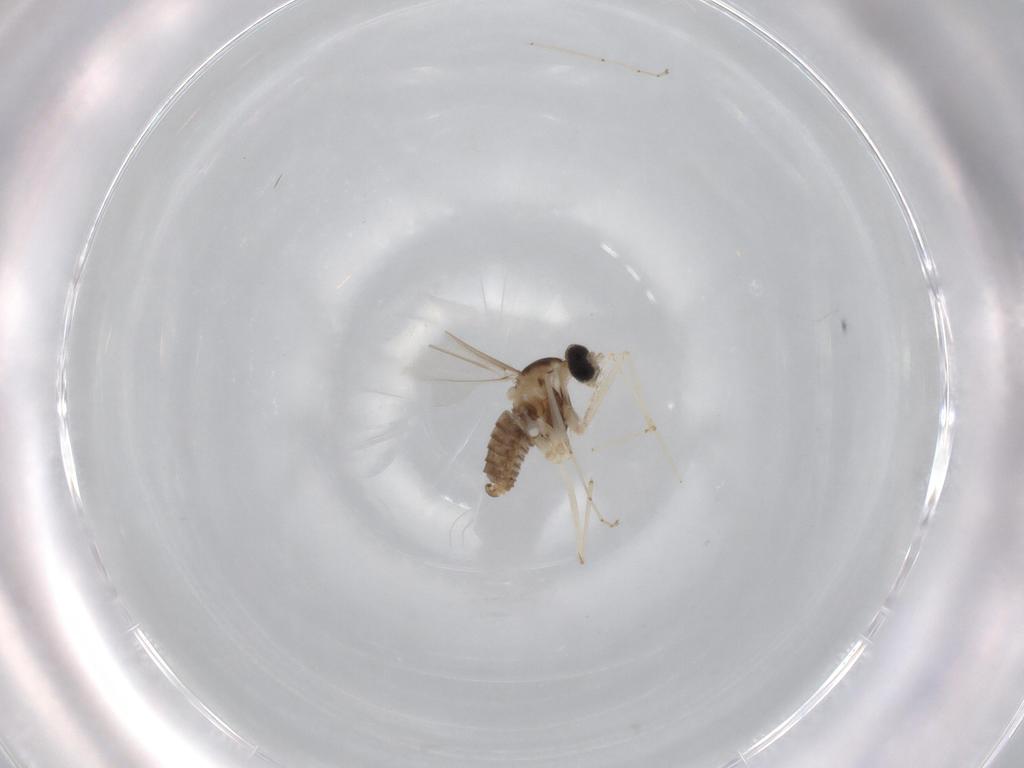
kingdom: Animalia
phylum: Arthropoda
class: Insecta
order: Diptera
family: Cecidomyiidae
